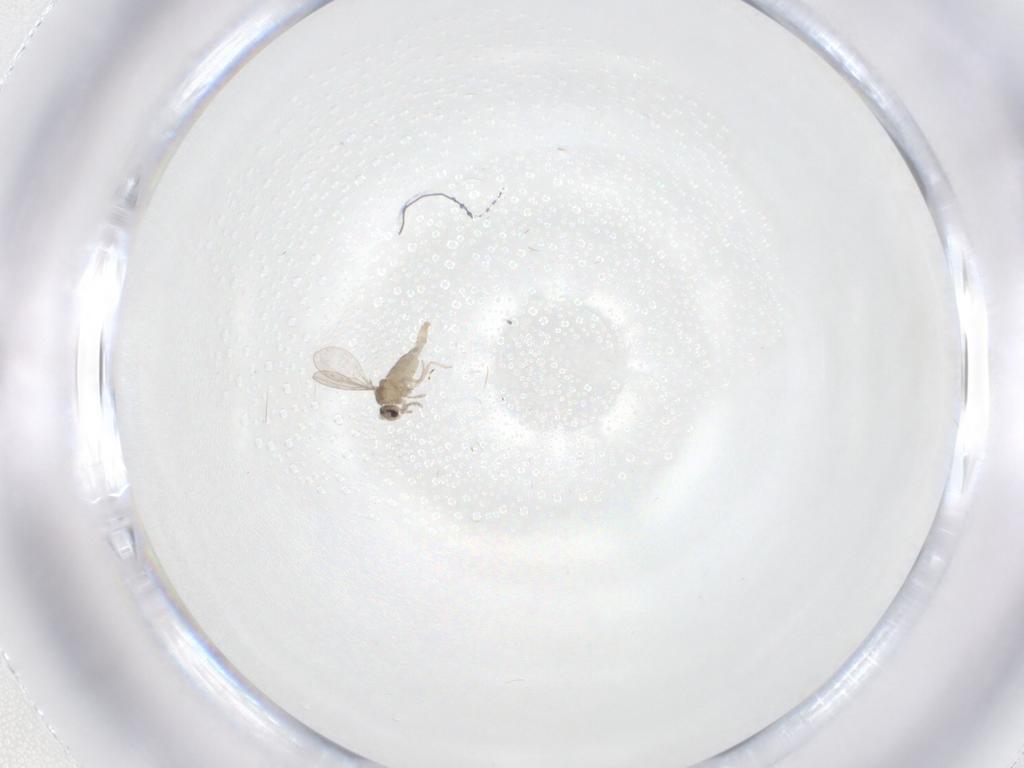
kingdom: Animalia
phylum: Arthropoda
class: Insecta
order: Diptera
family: Cecidomyiidae
